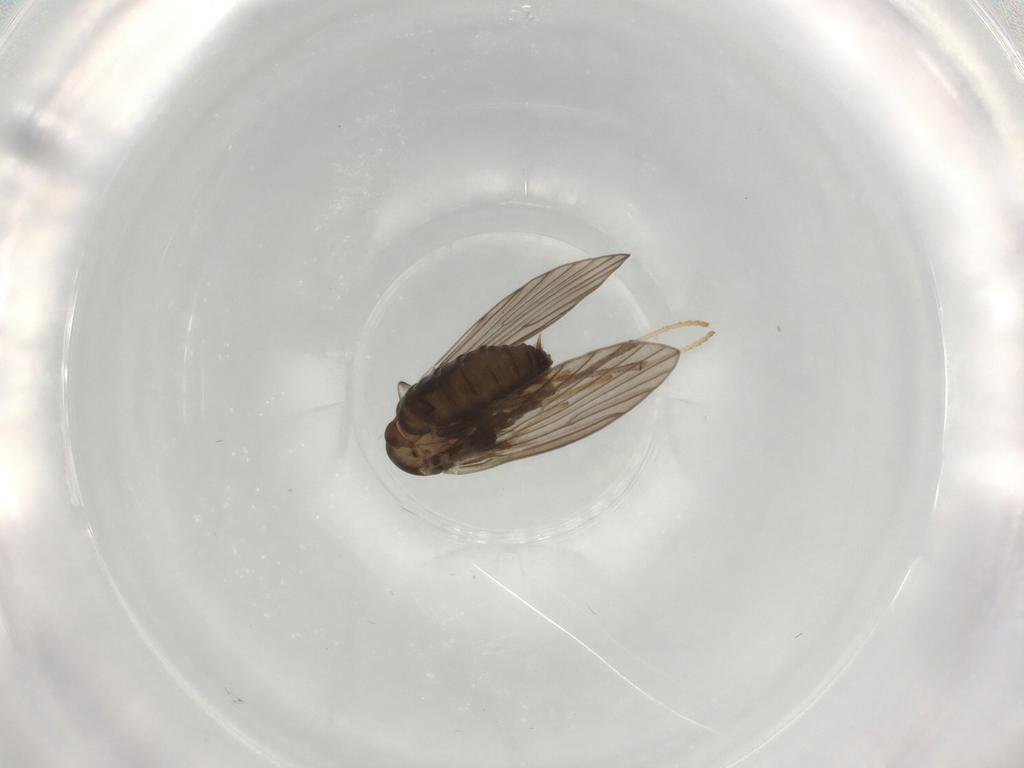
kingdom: Animalia
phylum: Arthropoda
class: Insecta
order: Diptera
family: Psychodidae
